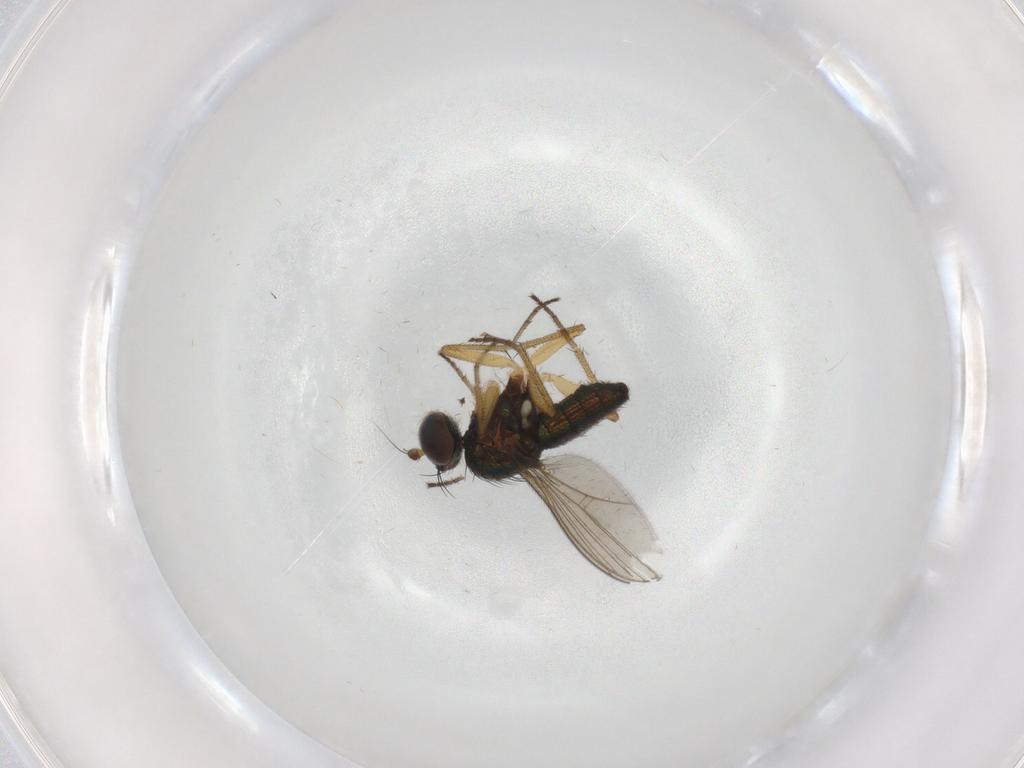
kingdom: Animalia
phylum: Arthropoda
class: Insecta
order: Diptera
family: Dolichopodidae
